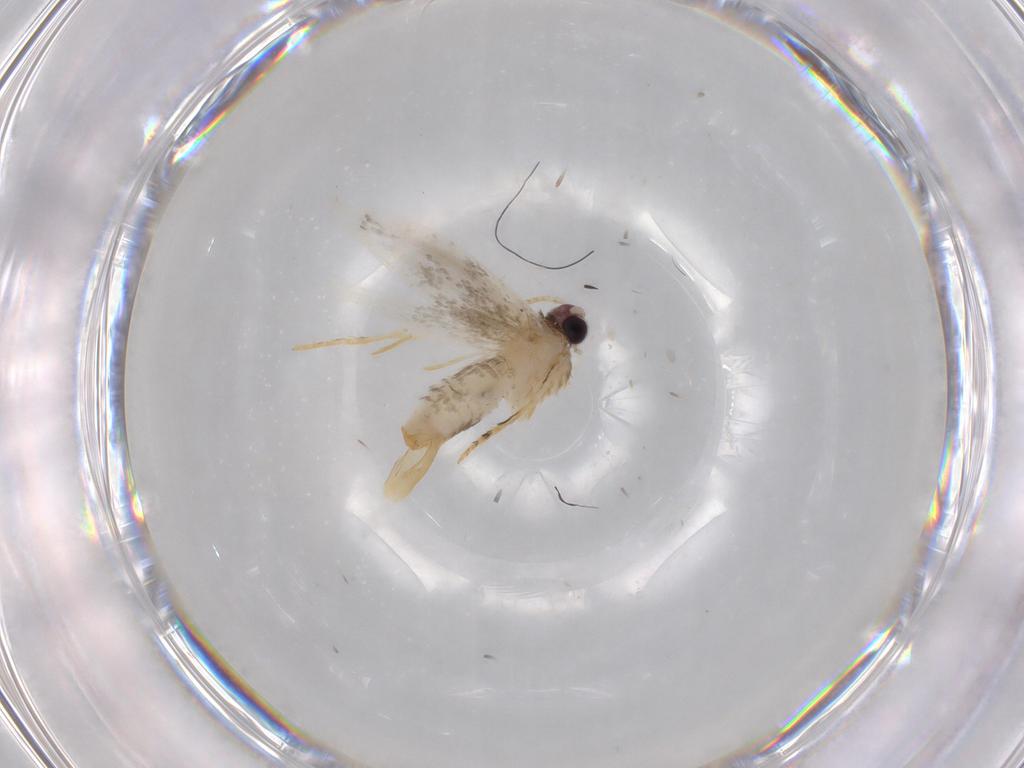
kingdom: Animalia
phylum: Arthropoda
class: Insecta
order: Lepidoptera
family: Nepticulidae
